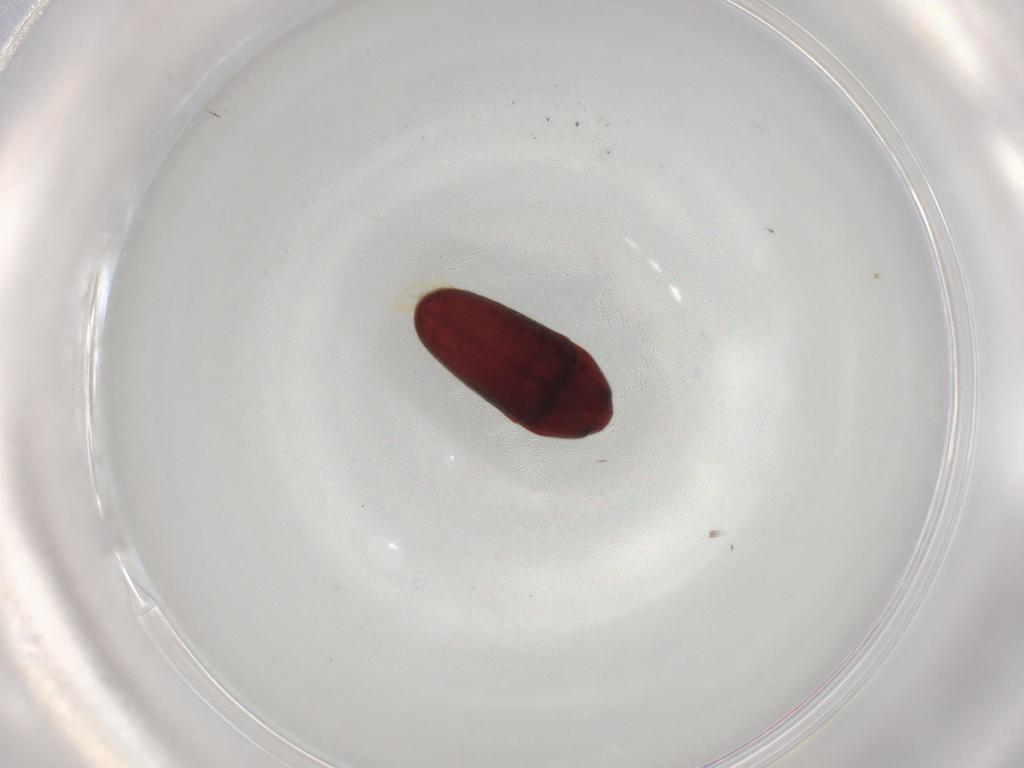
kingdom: Animalia
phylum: Arthropoda
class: Insecta
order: Coleoptera
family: Throscidae
